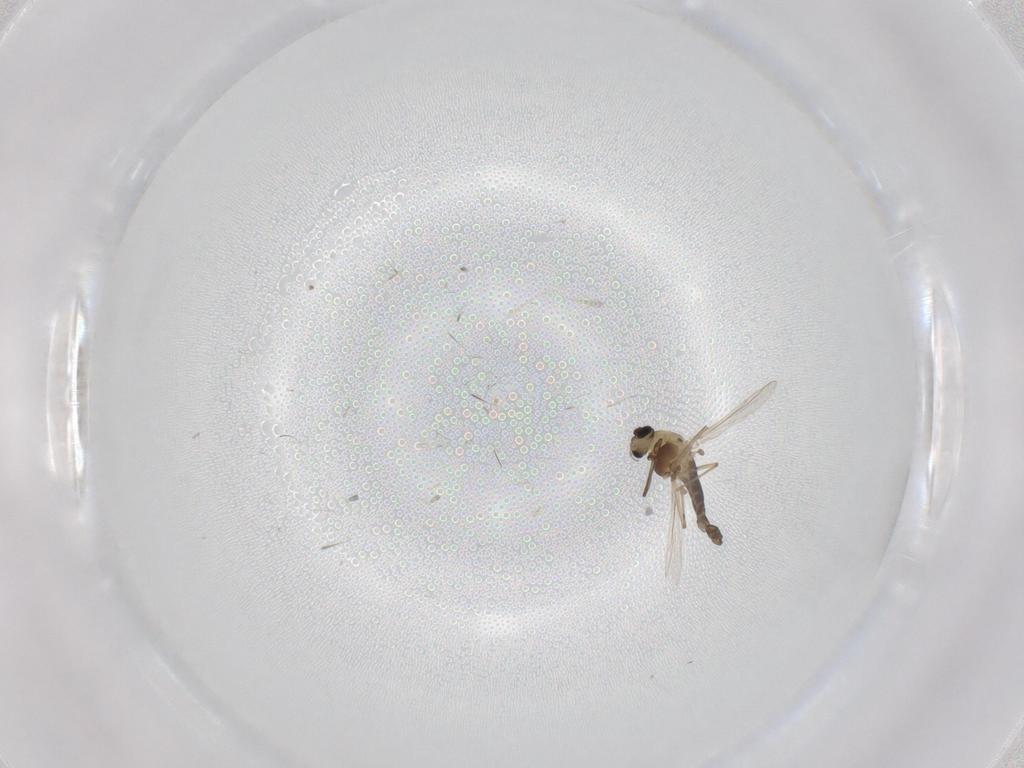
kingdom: Animalia
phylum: Arthropoda
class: Insecta
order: Diptera
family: Chironomidae
